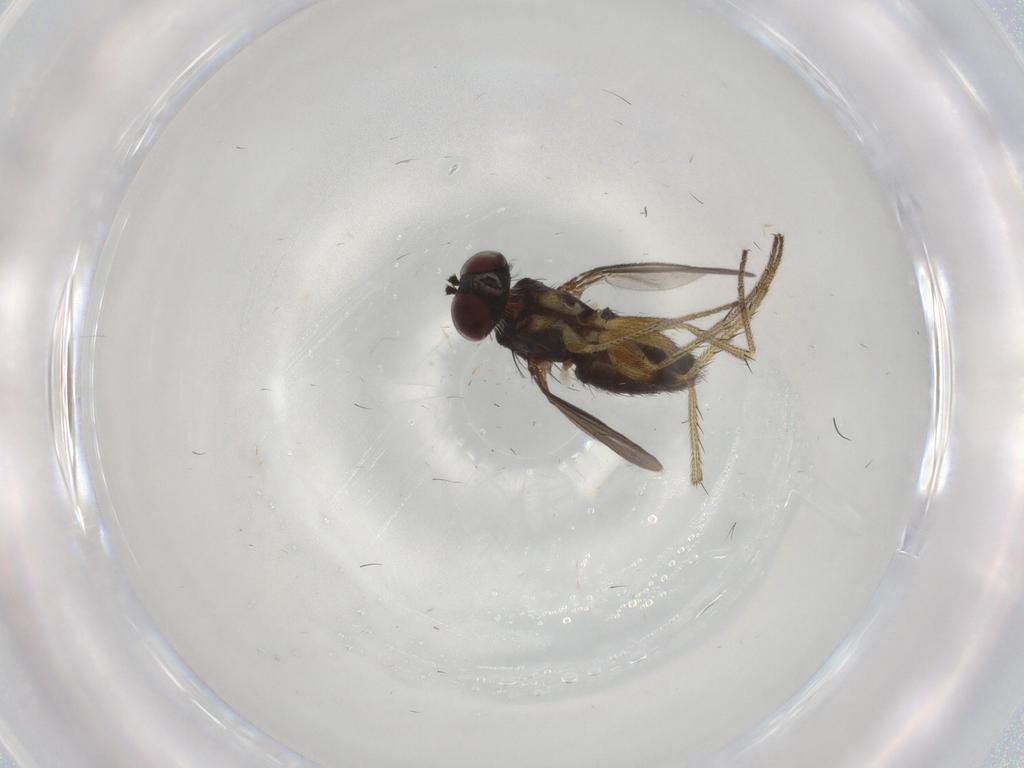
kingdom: Animalia
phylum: Arthropoda
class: Insecta
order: Diptera
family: Dolichopodidae
